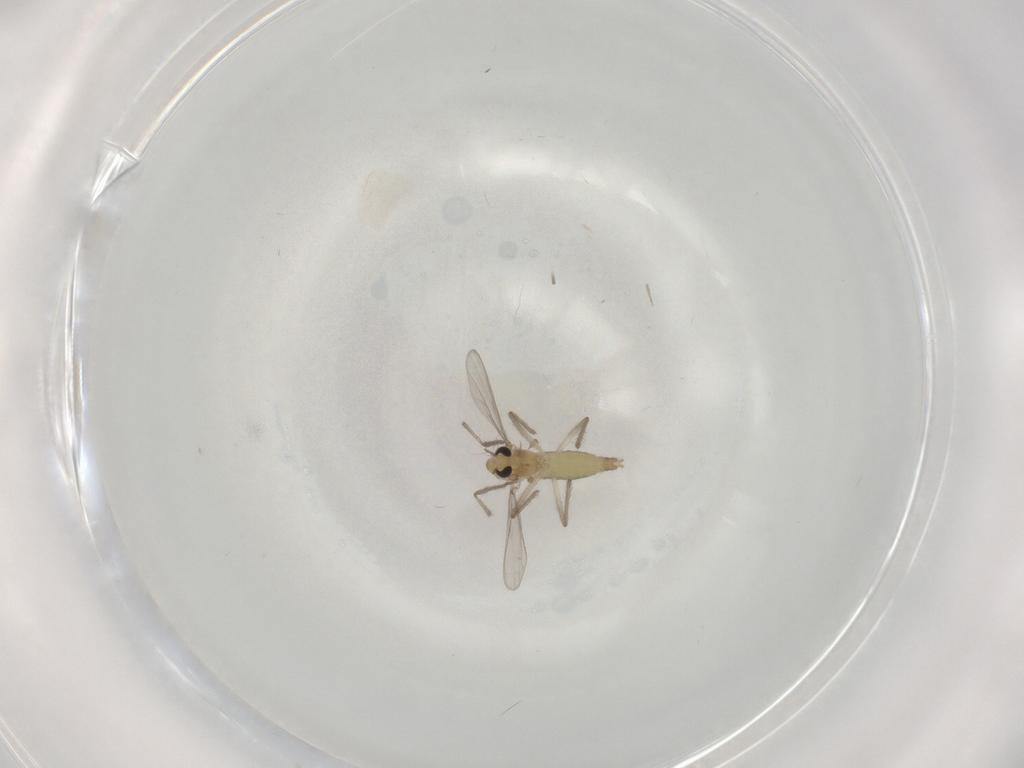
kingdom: Animalia
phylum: Arthropoda
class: Insecta
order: Diptera
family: Chironomidae
